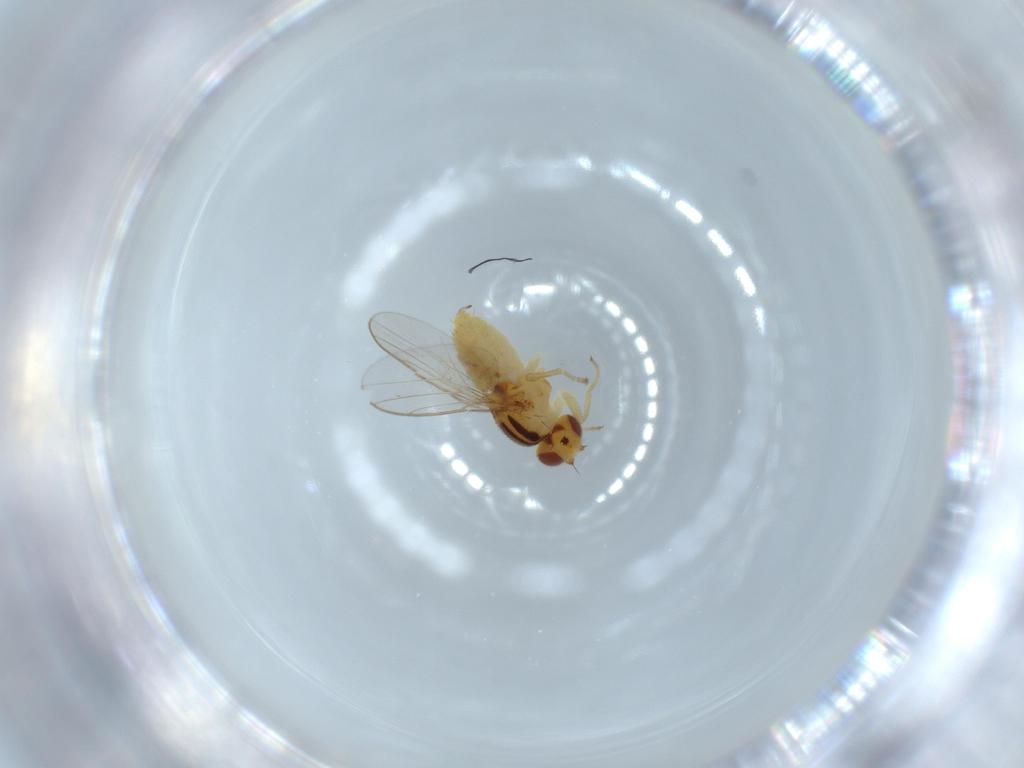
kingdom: Animalia
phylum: Arthropoda
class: Insecta
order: Diptera
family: Chloropidae
